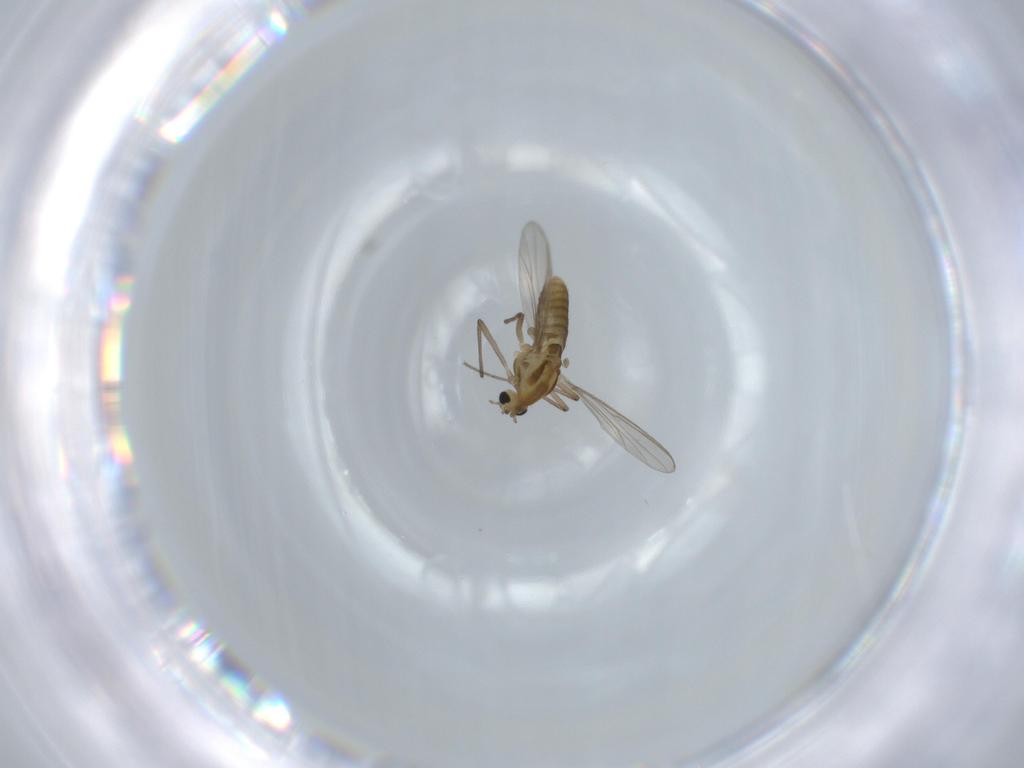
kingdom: Animalia
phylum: Arthropoda
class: Insecta
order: Diptera
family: Chironomidae
